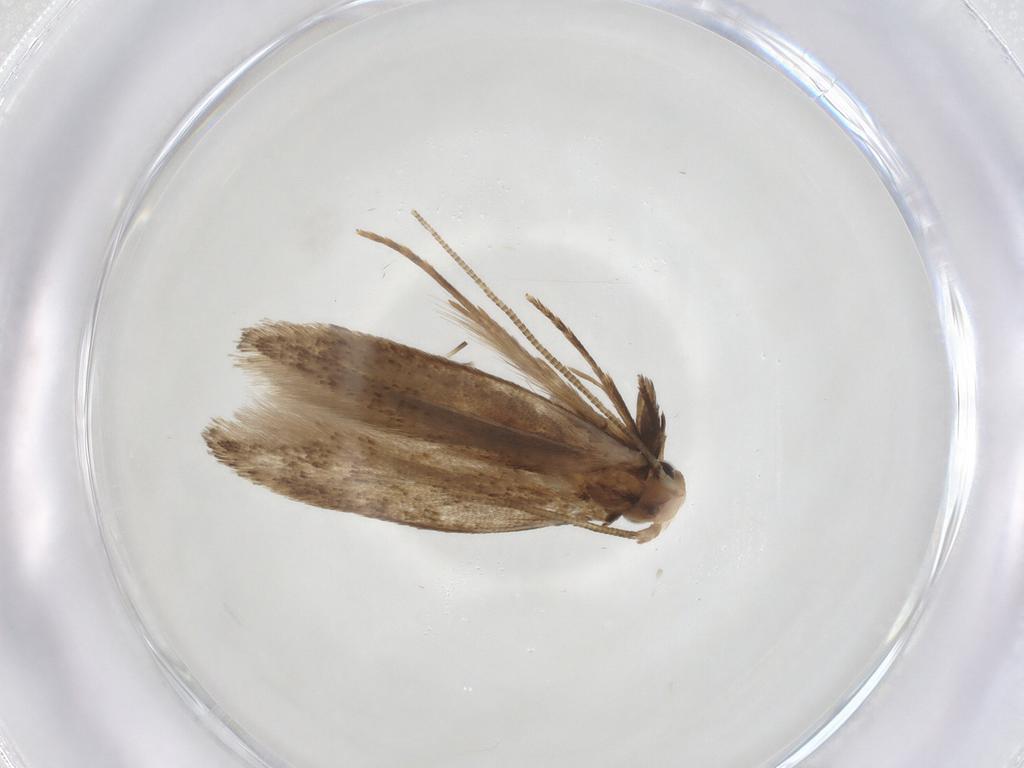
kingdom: Animalia
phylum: Arthropoda
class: Insecta
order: Lepidoptera
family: Tineidae
